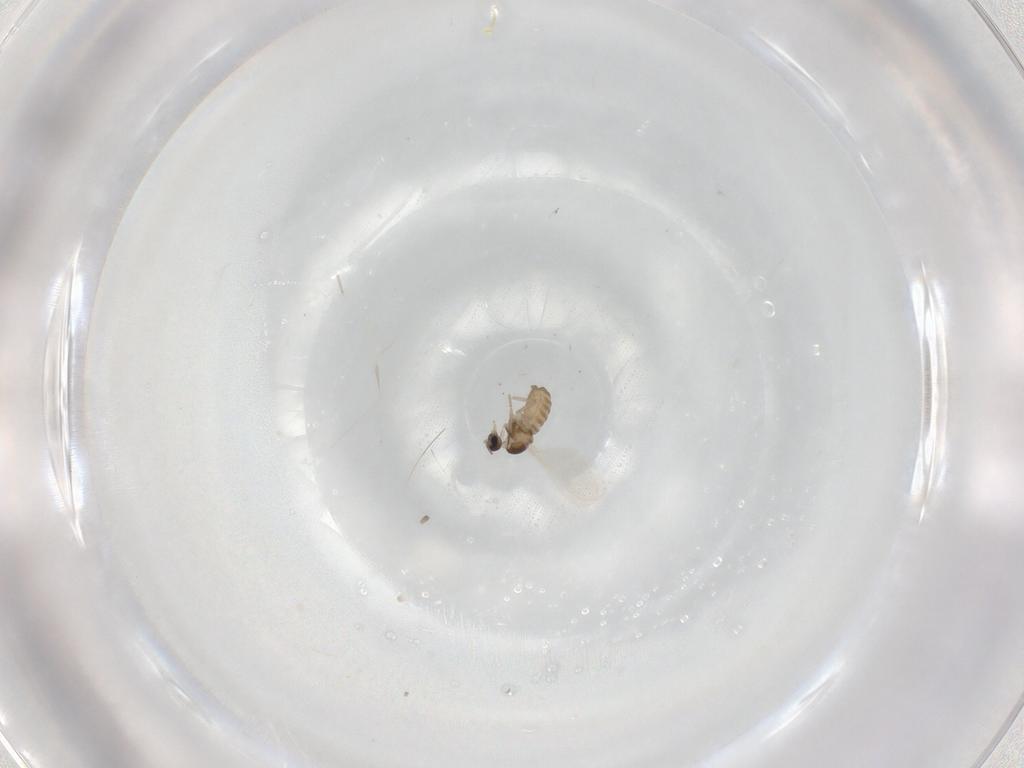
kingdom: Animalia
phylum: Arthropoda
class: Insecta
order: Diptera
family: Cecidomyiidae
